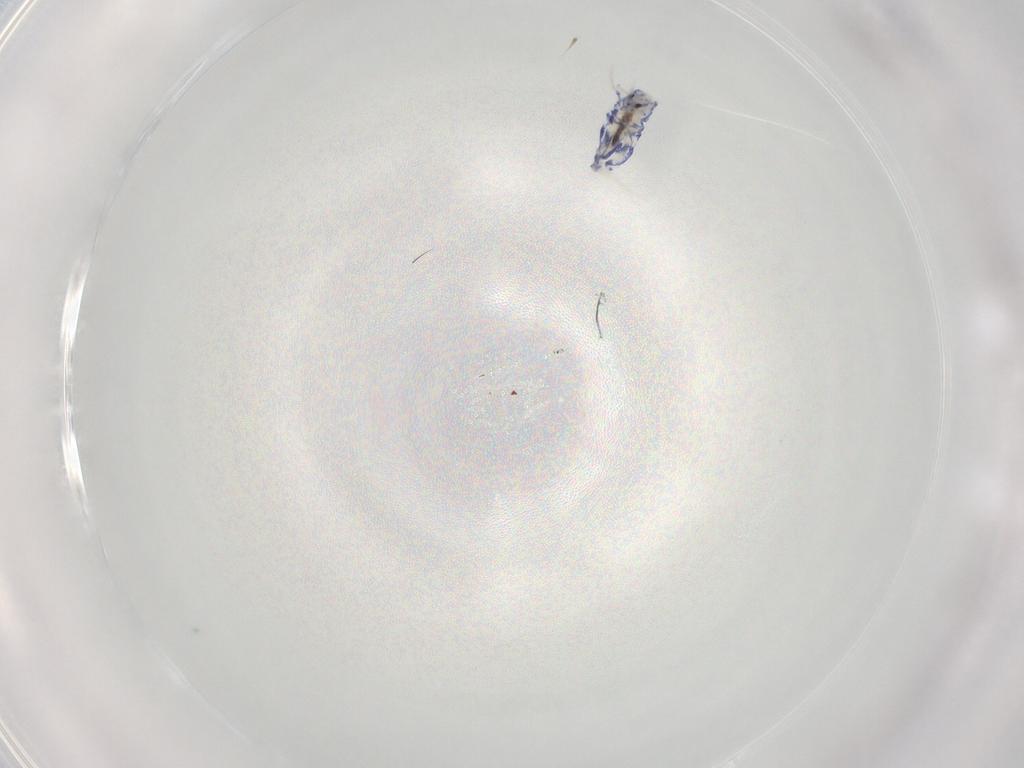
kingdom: Animalia
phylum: Arthropoda
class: Collembola
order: Entomobryomorpha
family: Entomobryidae
